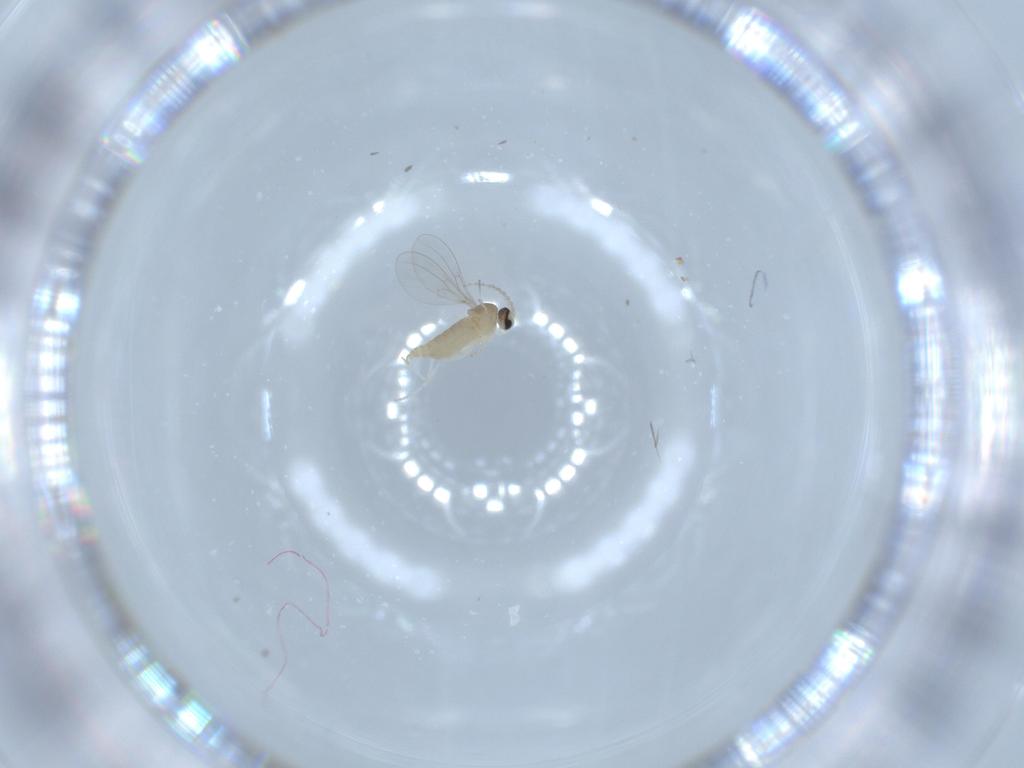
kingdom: Animalia
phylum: Arthropoda
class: Insecta
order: Diptera
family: Cecidomyiidae
